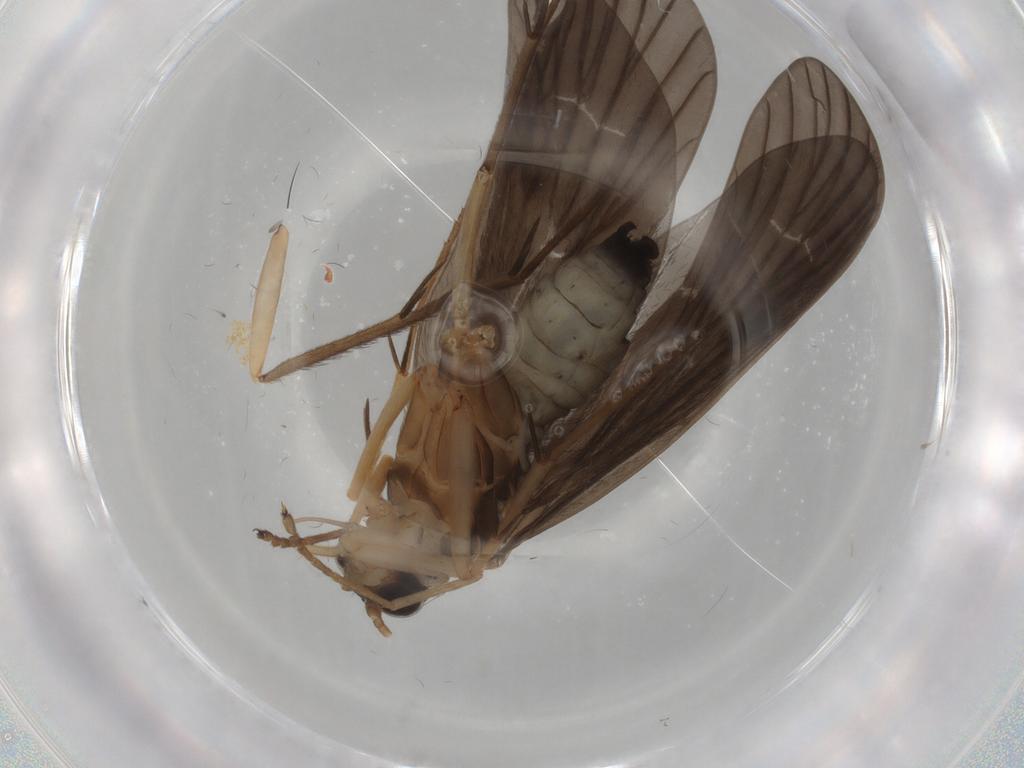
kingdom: Animalia
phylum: Arthropoda
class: Insecta
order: Trichoptera
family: Philopotamidae
